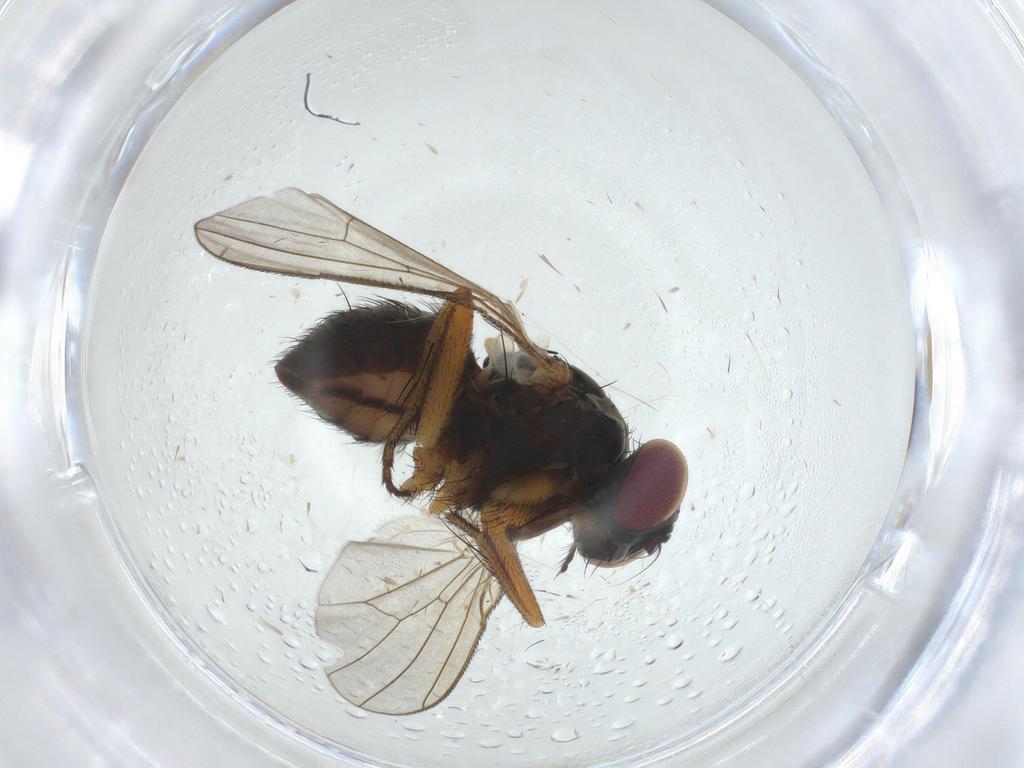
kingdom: Animalia
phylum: Arthropoda
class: Insecta
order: Diptera
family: Muscidae
